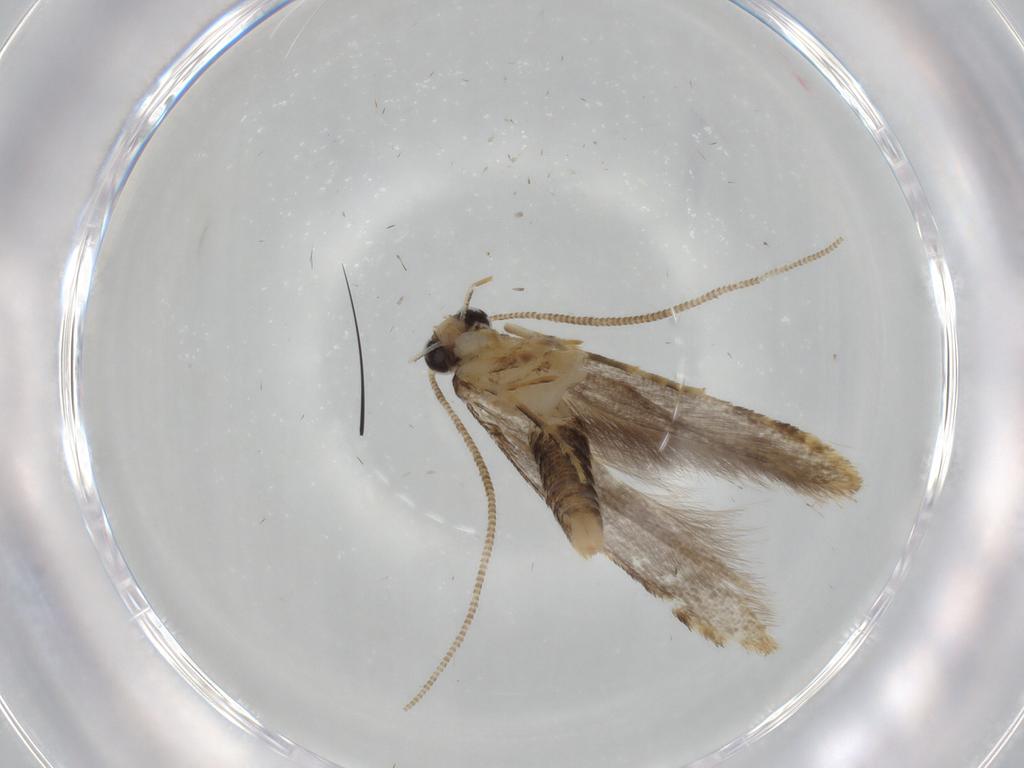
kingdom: Animalia
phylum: Arthropoda
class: Insecta
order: Lepidoptera
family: Tineidae
